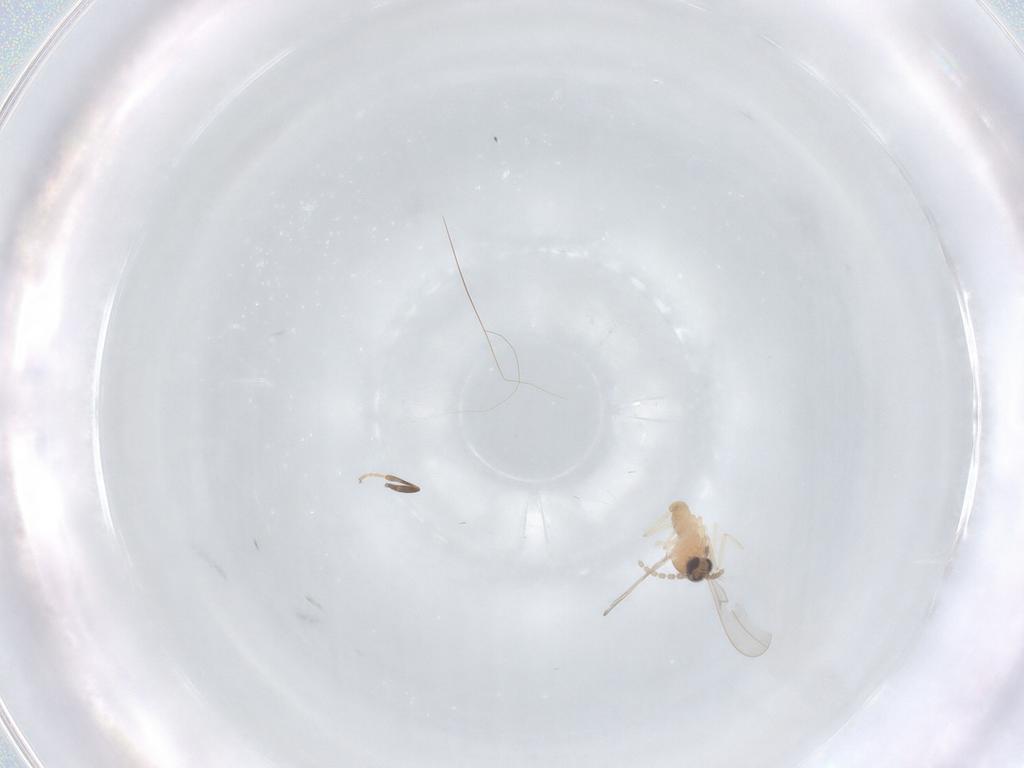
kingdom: Animalia
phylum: Arthropoda
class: Insecta
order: Diptera
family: Cecidomyiidae
